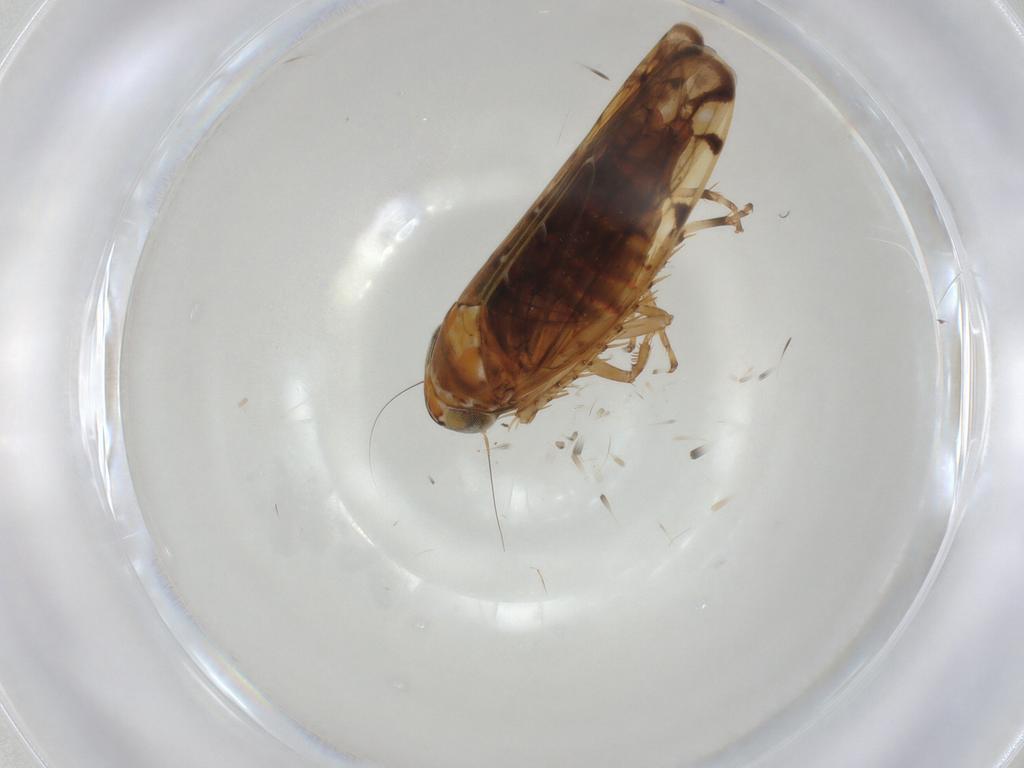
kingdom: Animalia
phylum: Arthropoda
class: Insecta
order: Hemiptera
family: Cicadellidae
